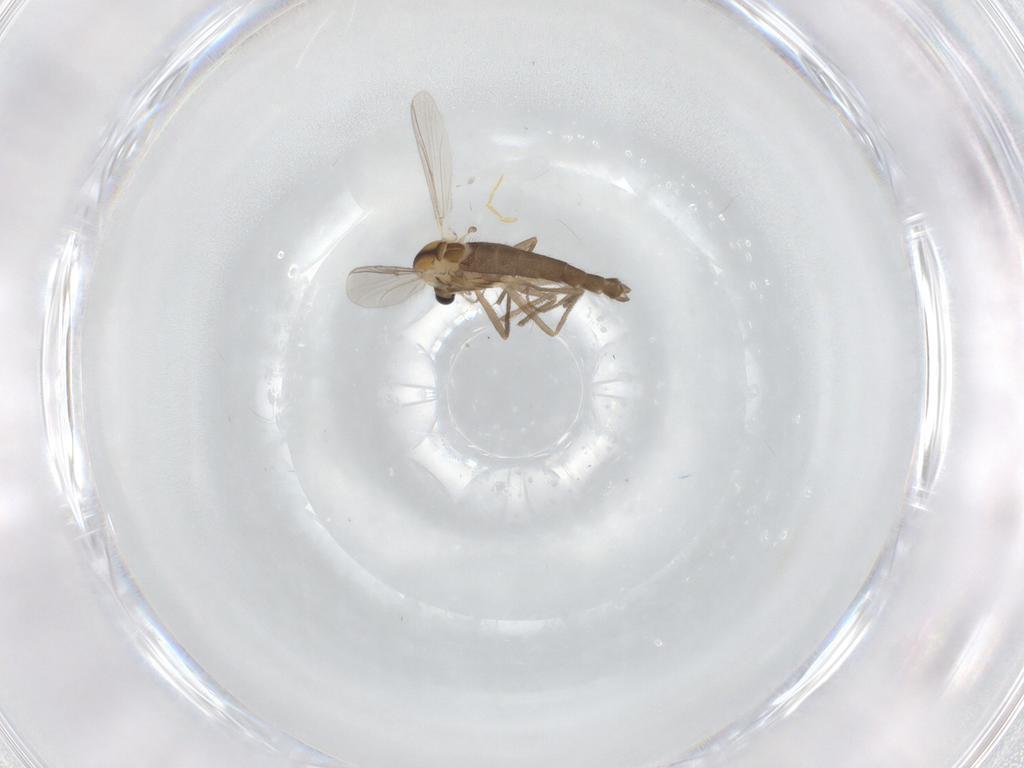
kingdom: Animalia
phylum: Arthropoda
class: Insecta
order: Diptera
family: Chironomidae
